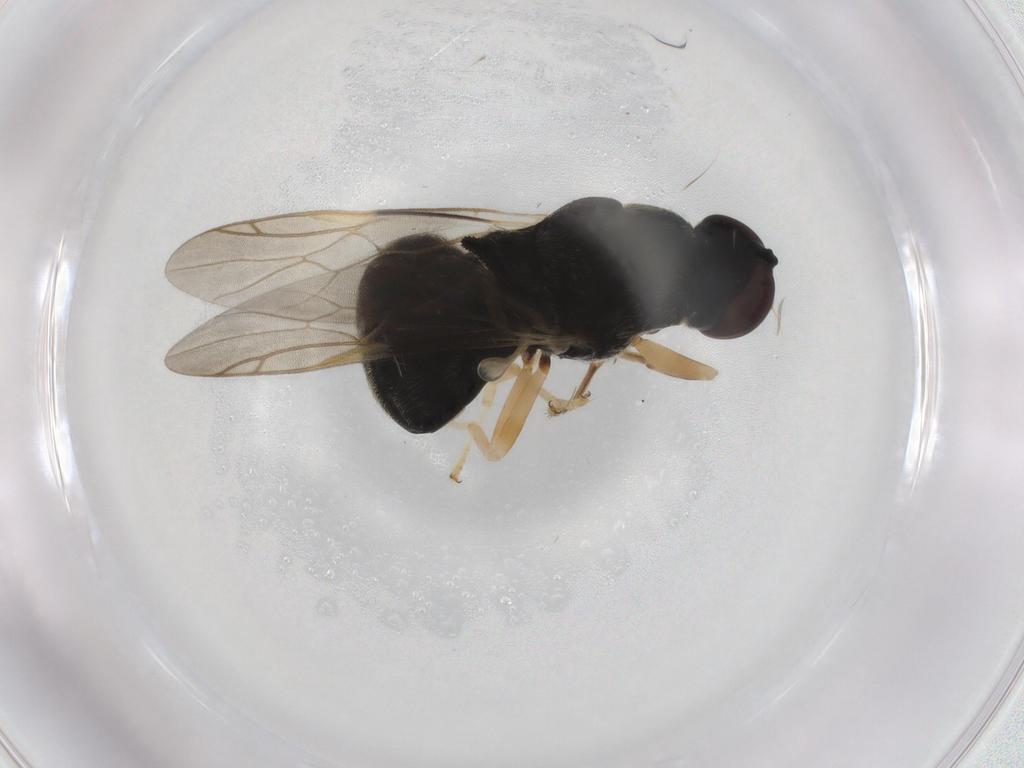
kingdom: Animalia
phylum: Arthropoda
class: Insecta
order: Diptera
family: Stratiomyidae
